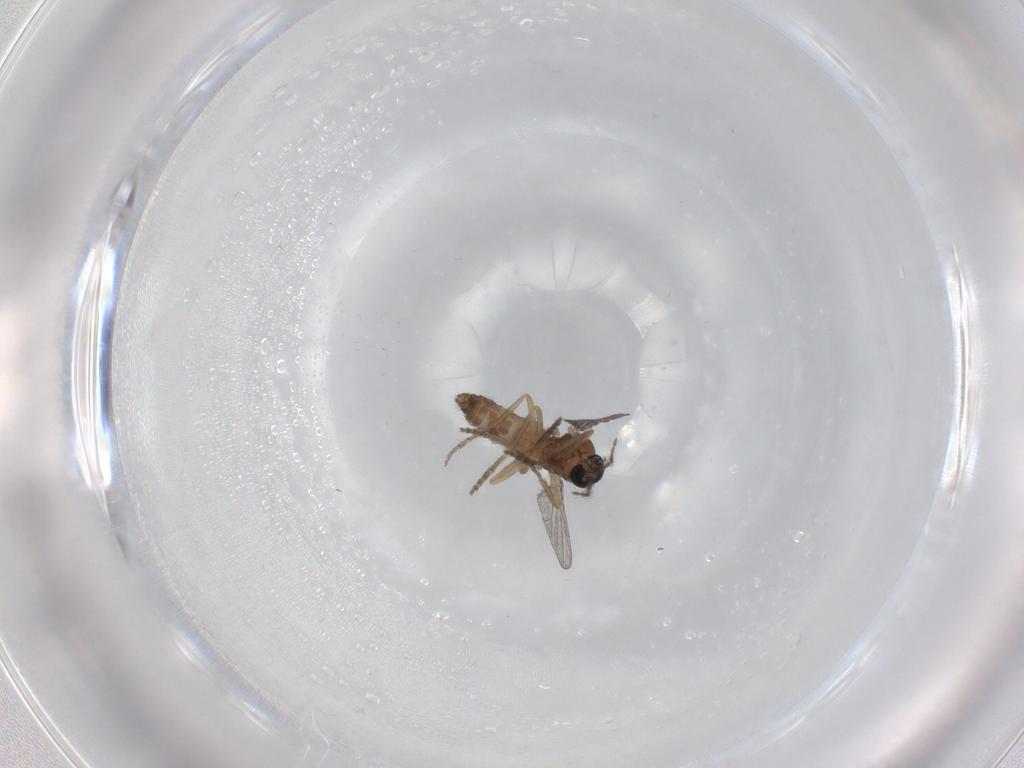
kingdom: Animalia
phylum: Arthropoda
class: Insecta
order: Diptera
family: Ceratopogonidae
